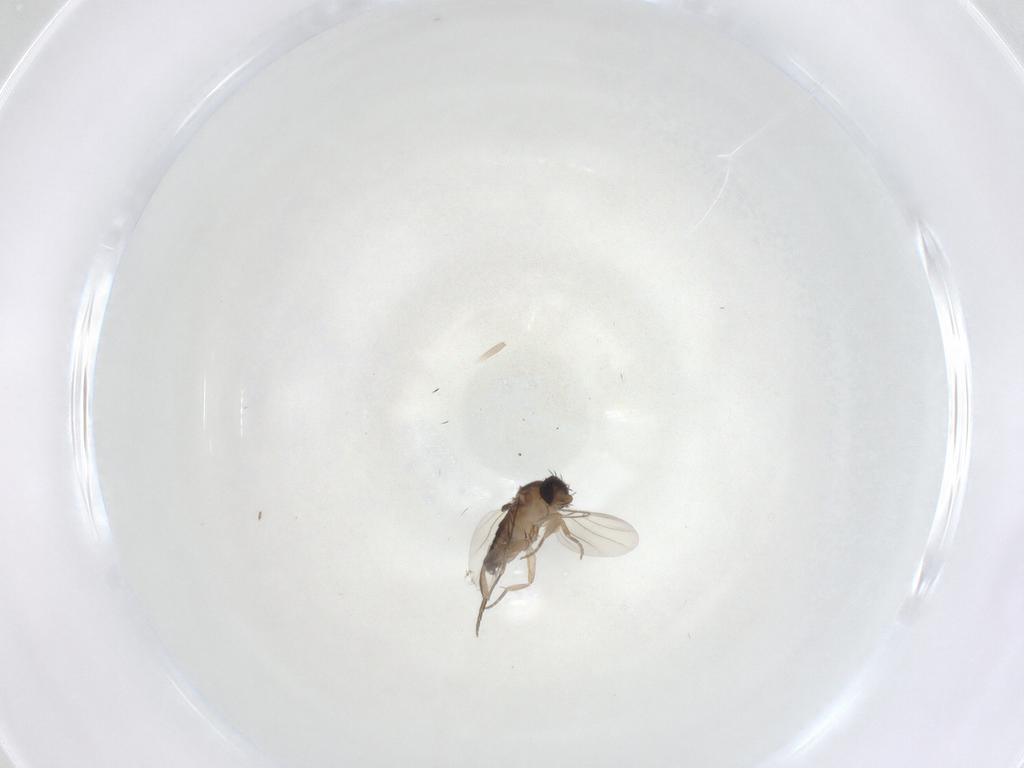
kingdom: Animalia
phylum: Arthropoda
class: Insecta
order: Diptera
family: Phoridae
